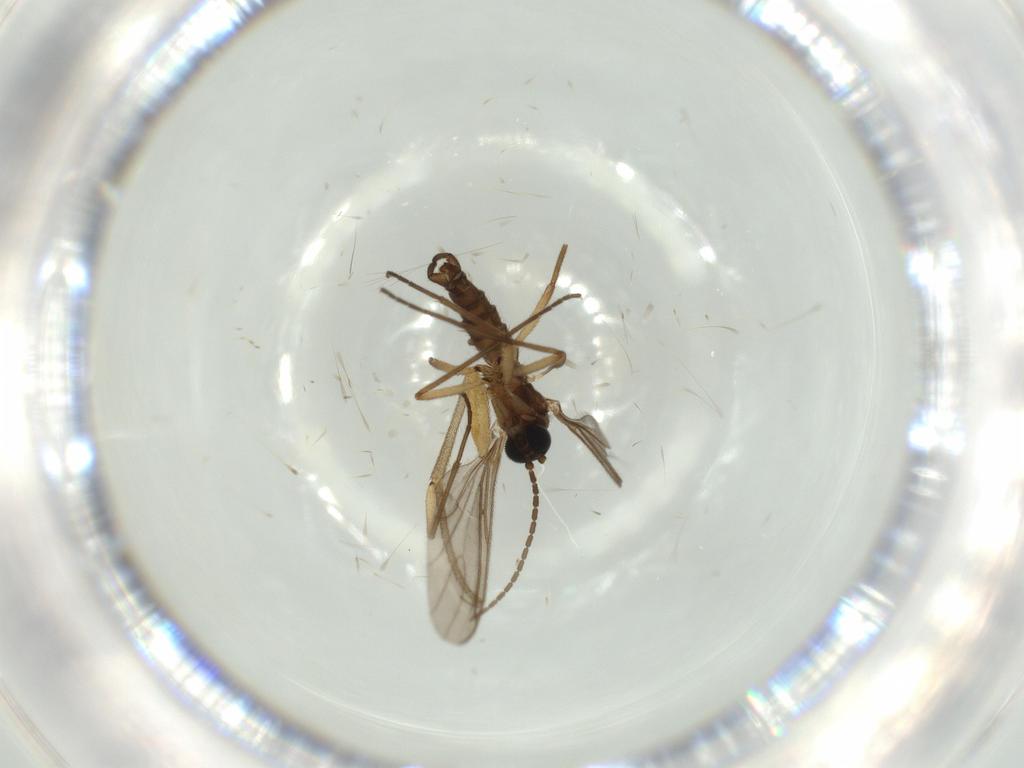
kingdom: Animalia
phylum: Arthropoda
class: Insecta
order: Diptera
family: Mycetophilidae
